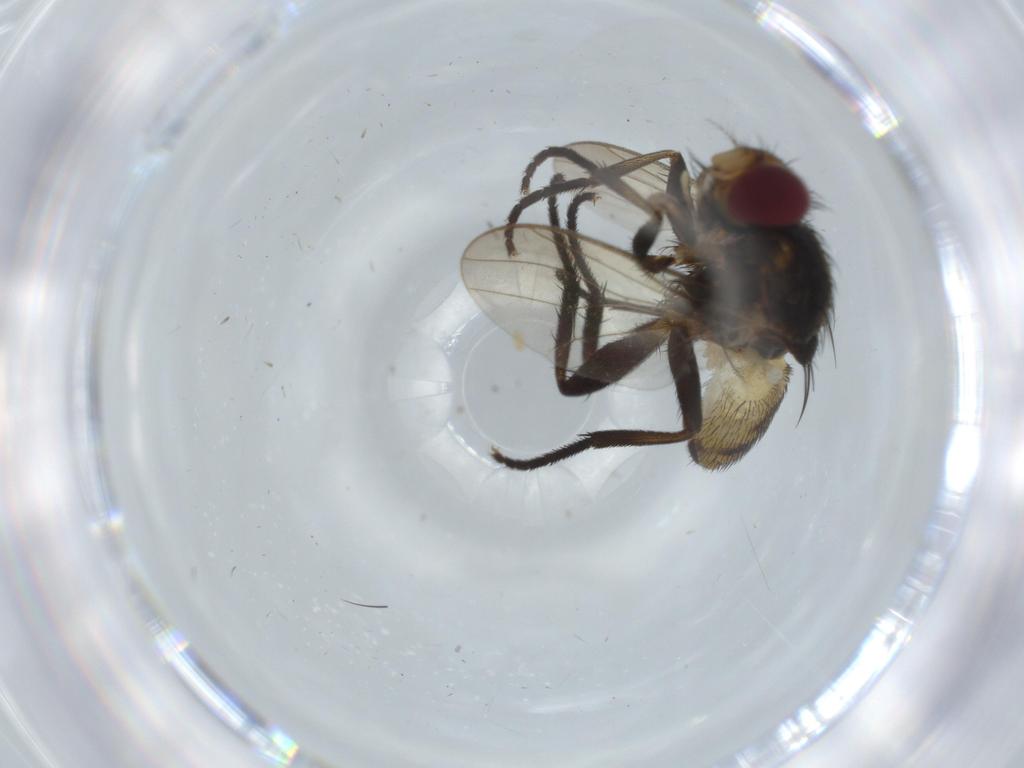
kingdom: Animalia
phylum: Arthropoda
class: Insecta
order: Diptera
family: Anthomyiidae
